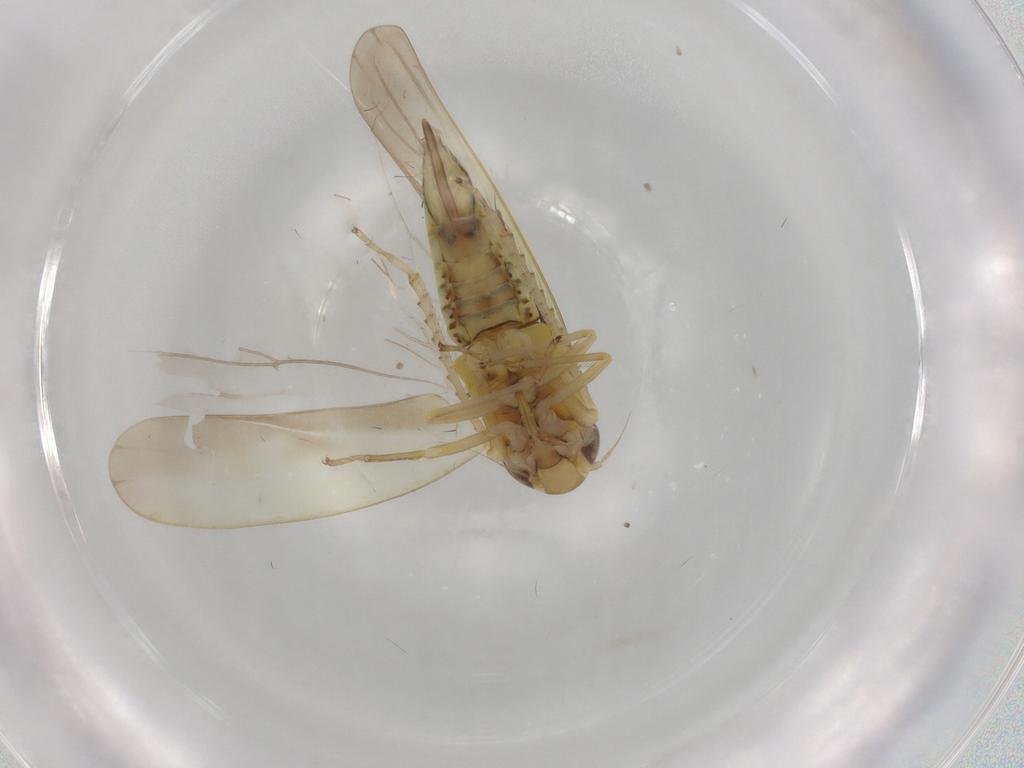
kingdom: Animalia
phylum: Arthropoda
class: Insecta
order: Hemiptera
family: Cicadellidae
